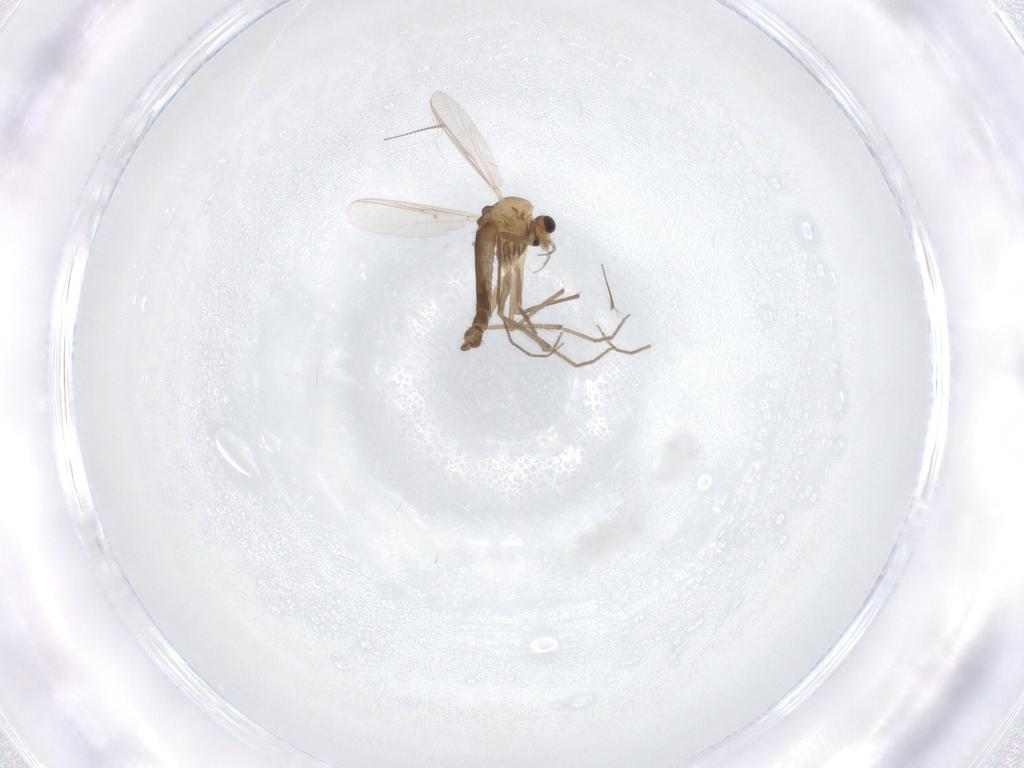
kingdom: Animalia
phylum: Arthropoda
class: Insecta
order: Diptera
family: Chironomidae
